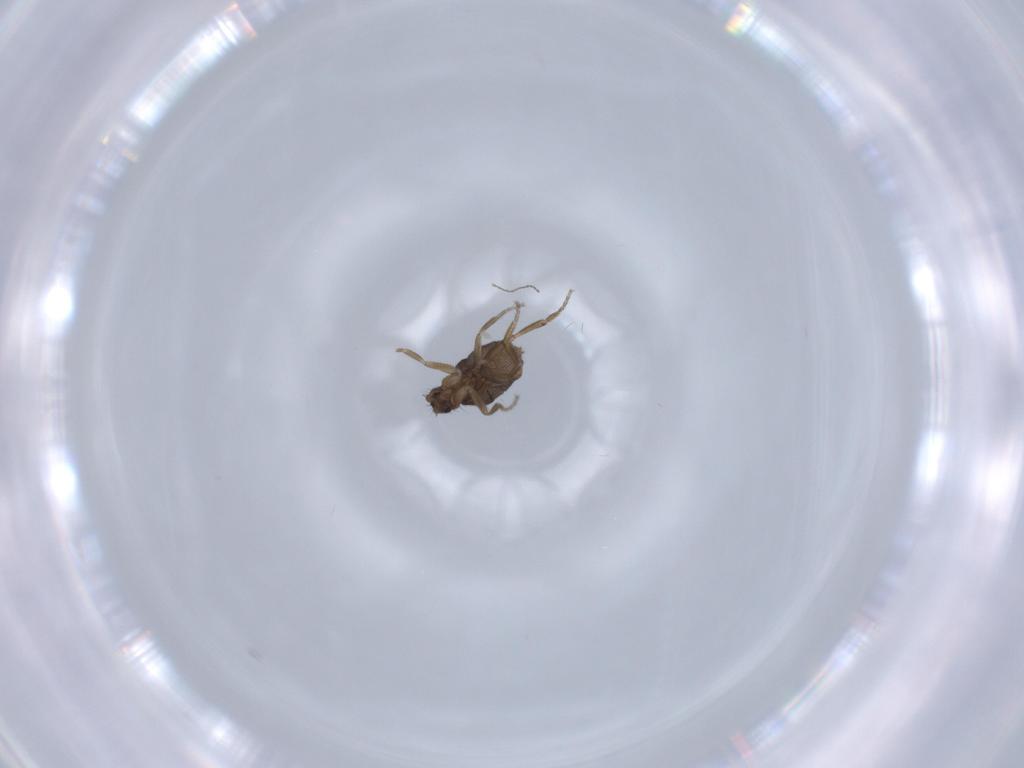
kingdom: Animalia
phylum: Arthropoda
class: Insecta
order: Diptera
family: Phoridae
